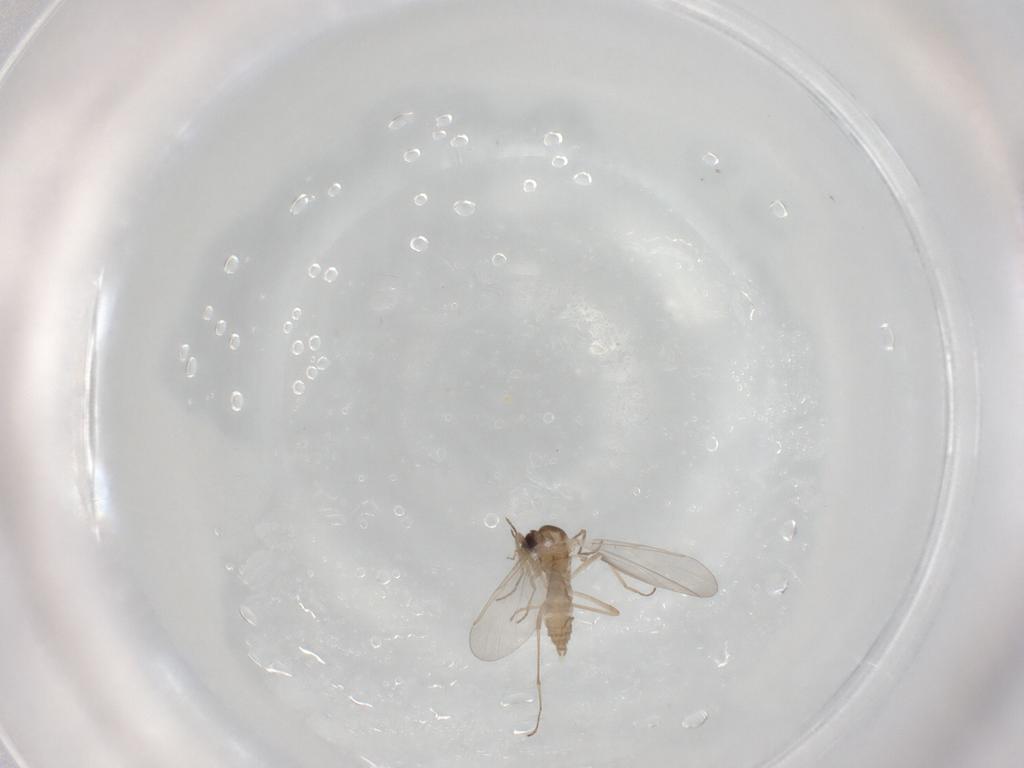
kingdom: Animalia
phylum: Arthropoda
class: Insecta
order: Diptera
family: Cecidomyiidae
